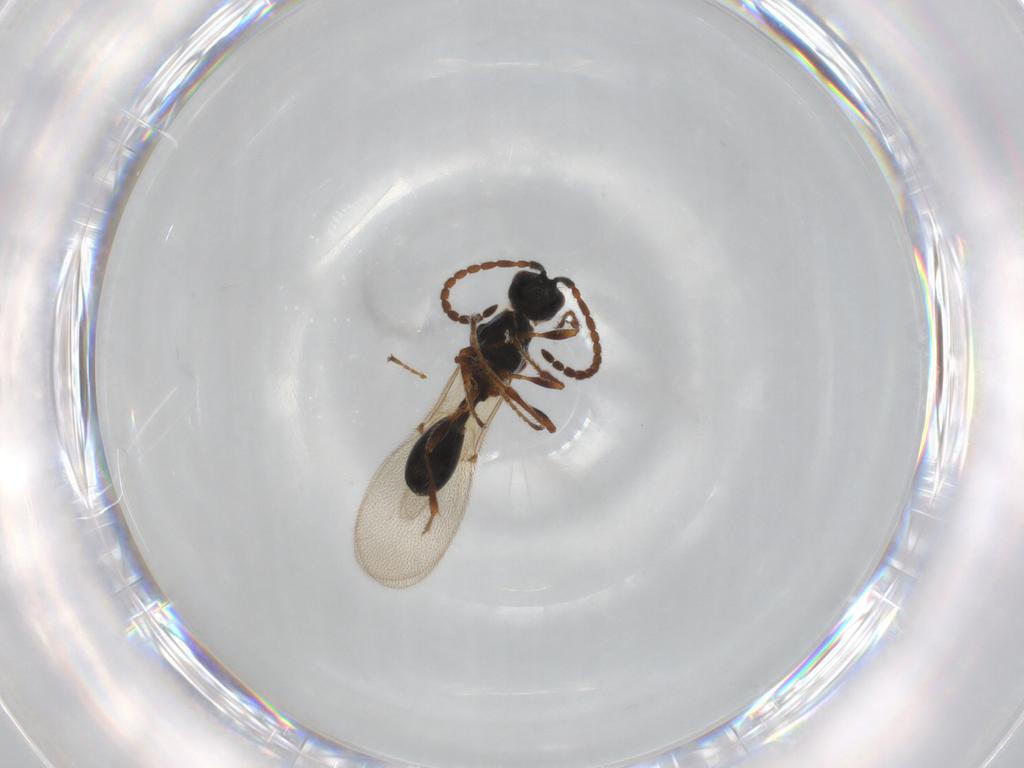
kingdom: Animalia
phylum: Arthropoda
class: Insecta
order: Hymenoptera
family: Diapriidae
